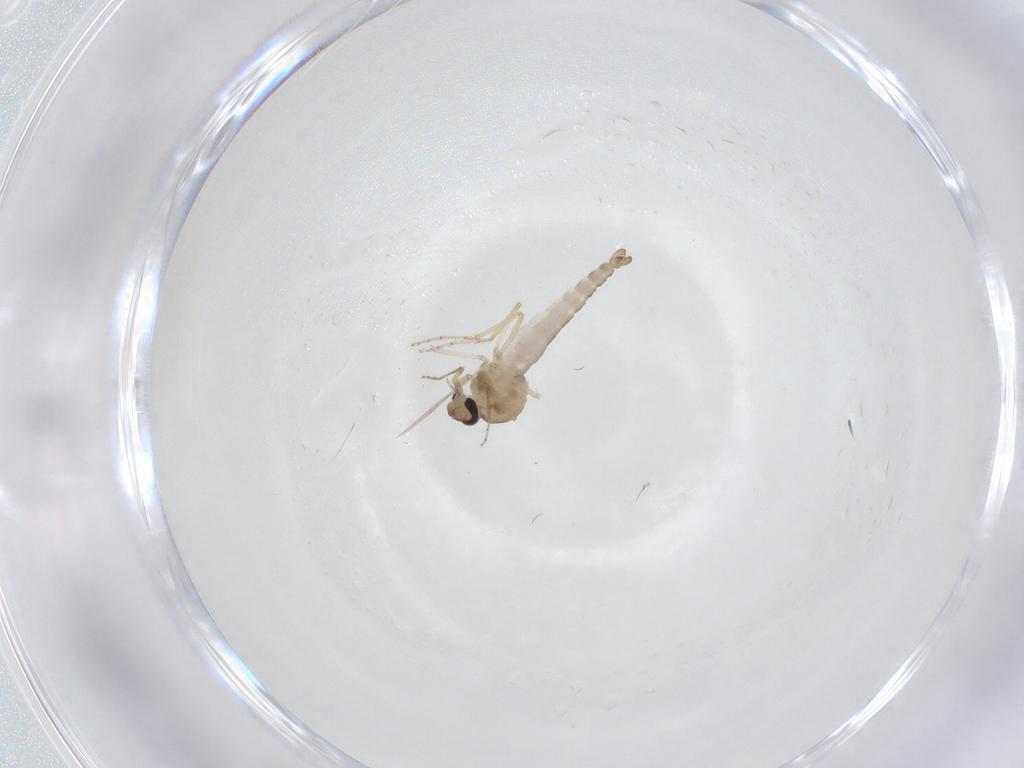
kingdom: Animalia
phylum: Arthropoda
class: Insecta
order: Diptera
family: Ceratopogonidae
